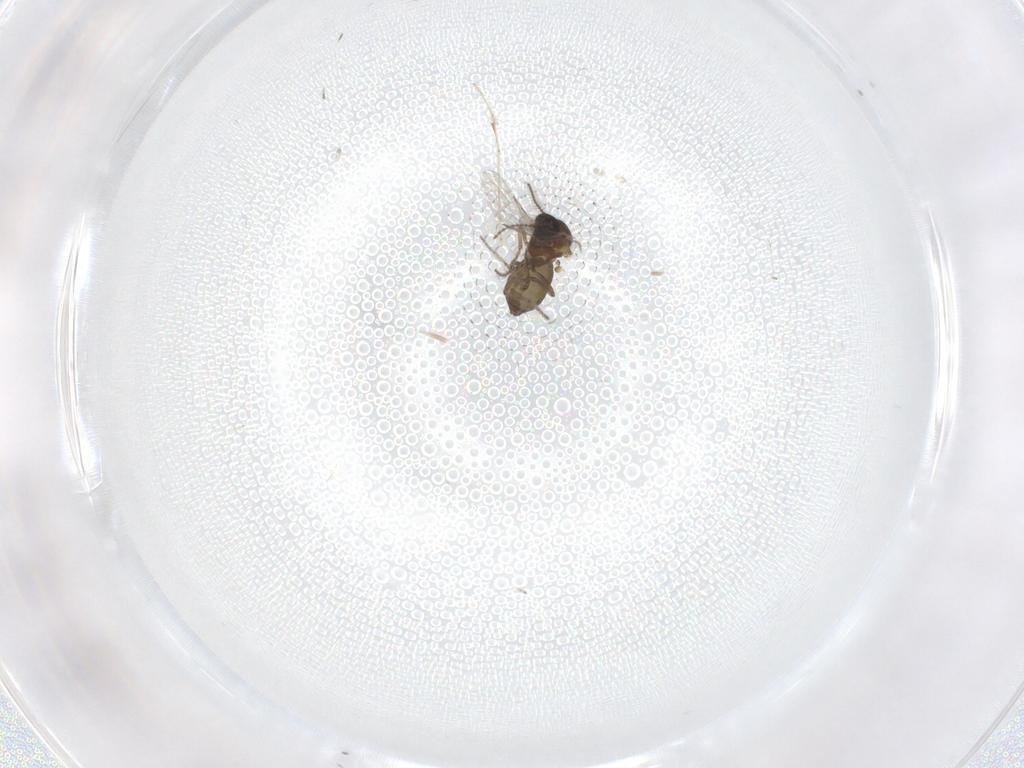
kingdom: Animalia
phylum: Arthropoda
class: Insecta
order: Diptera
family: Ceratopogonidae
